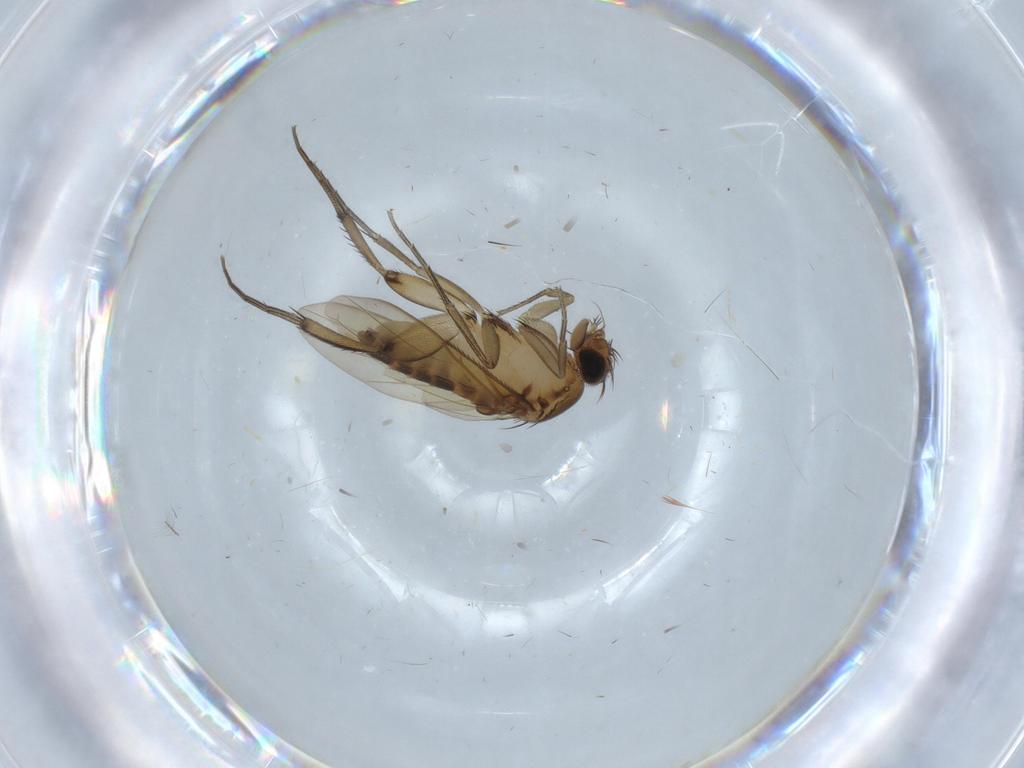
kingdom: Animalia
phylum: Arthropoda
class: Insecta
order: Diptera
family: Phoridae
